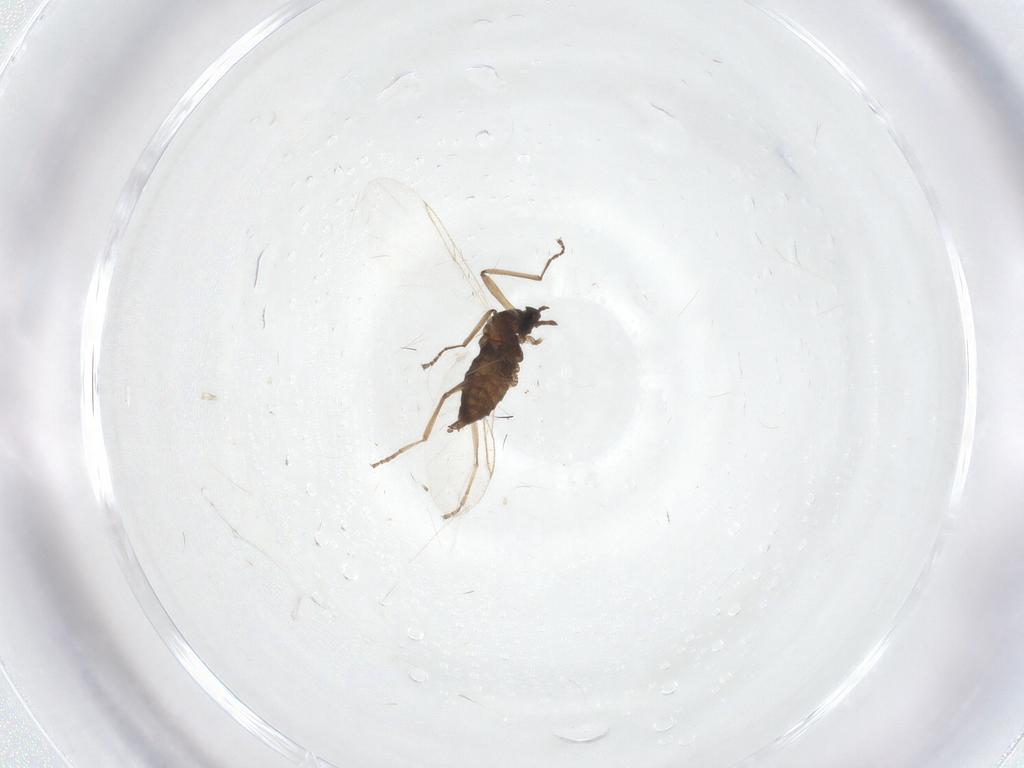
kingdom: Animalia
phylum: Arthropoda
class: Insecta
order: Diptera
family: Cecidomyiidae
